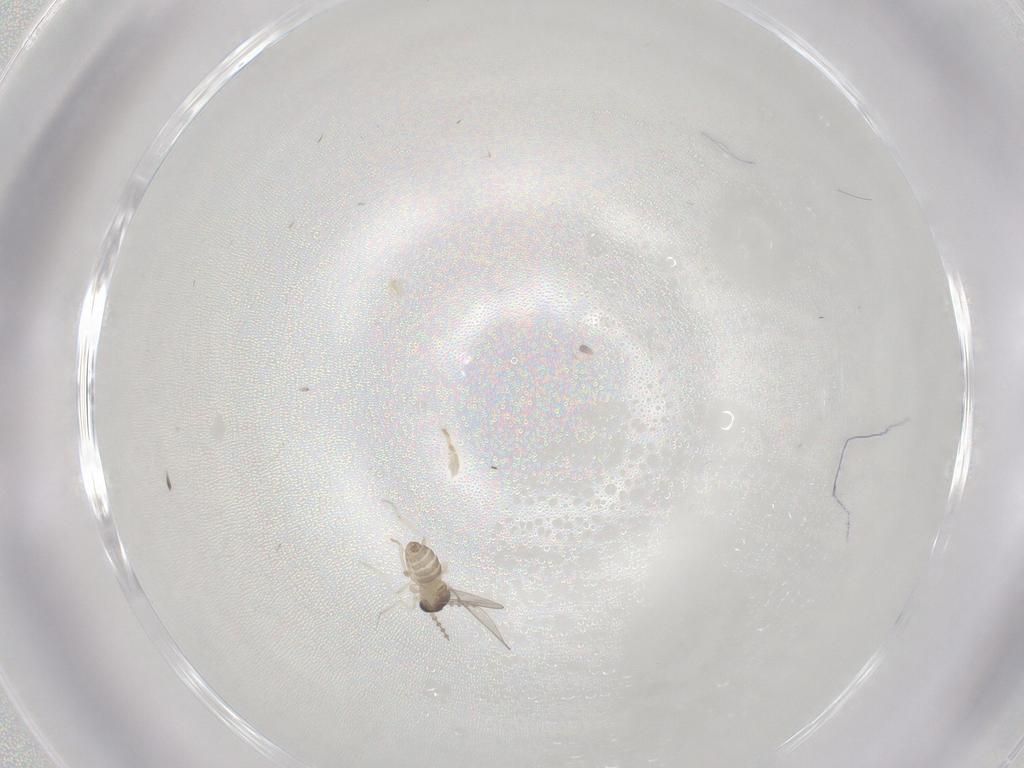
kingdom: Animalia
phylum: Arthropoda
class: Insecta
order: Diptera
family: Cecidomyiidae
